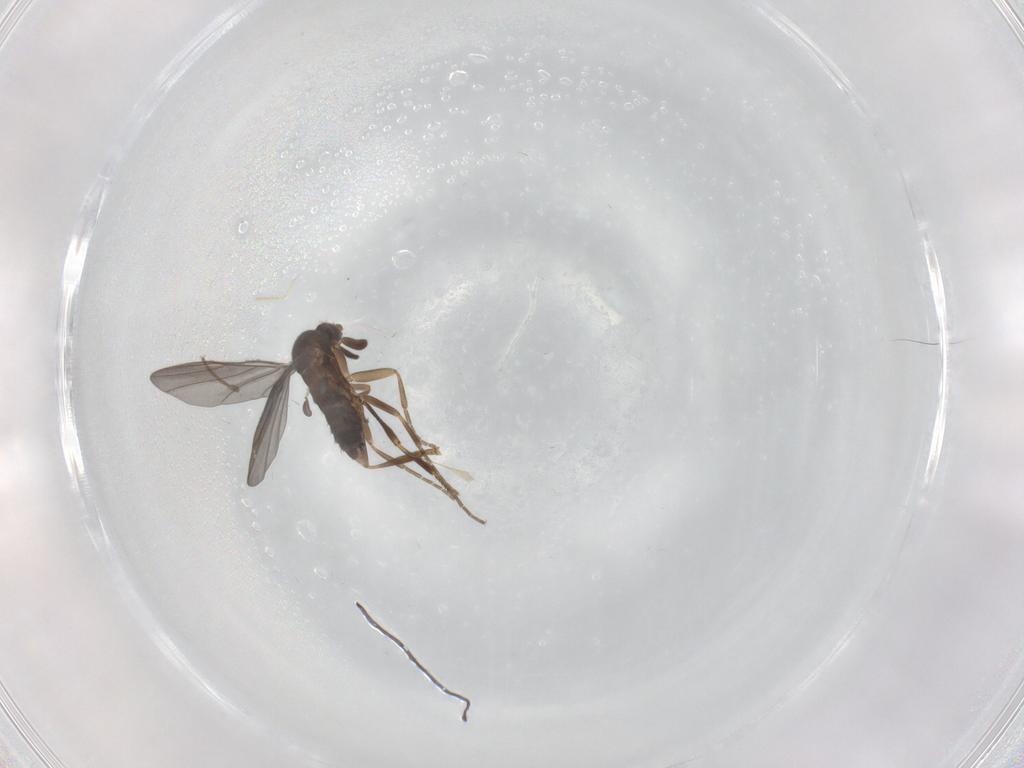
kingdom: Animalia
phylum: Arthropoda
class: Insecta
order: Diptera
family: Phoridae
